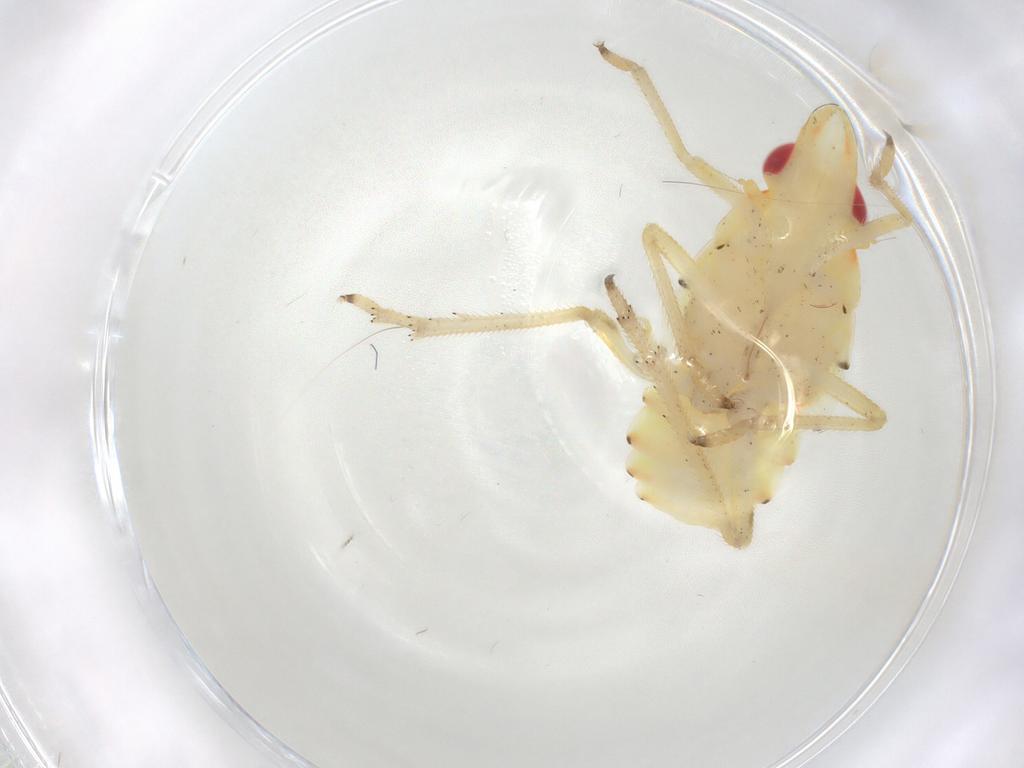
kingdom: Animalia
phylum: Arthropoda
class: Insecta
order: Hemiptera
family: Tropiduchidae
